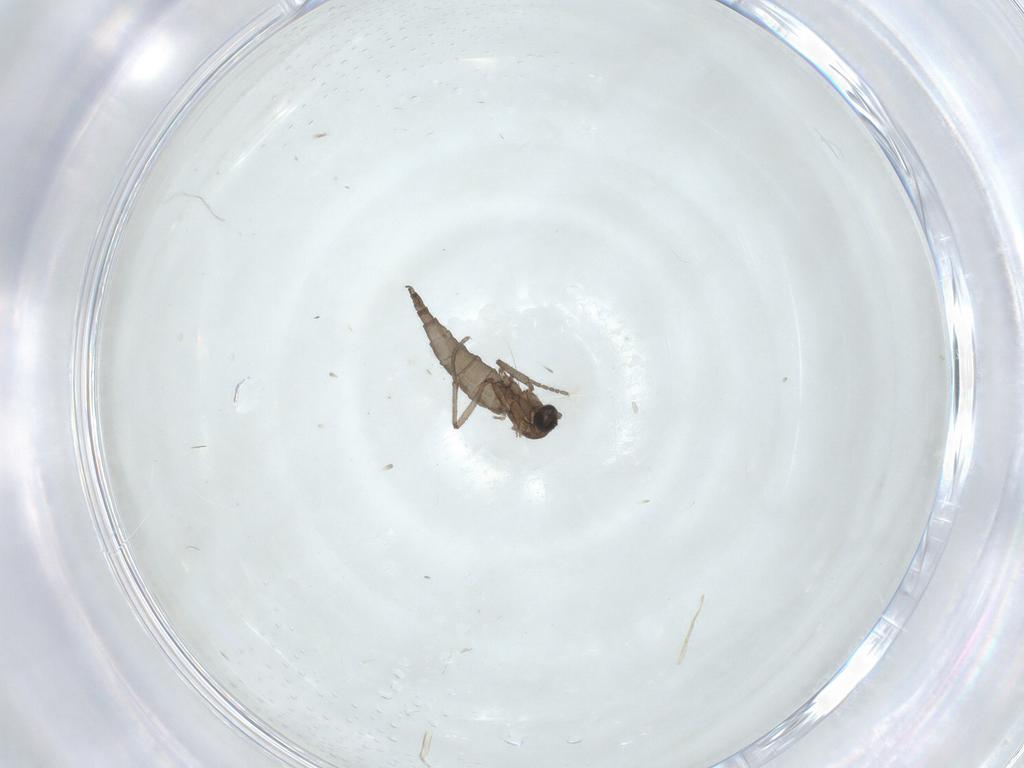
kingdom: Animalia
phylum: Arthropoda
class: Insecta
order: Diptera
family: Sciaridae
